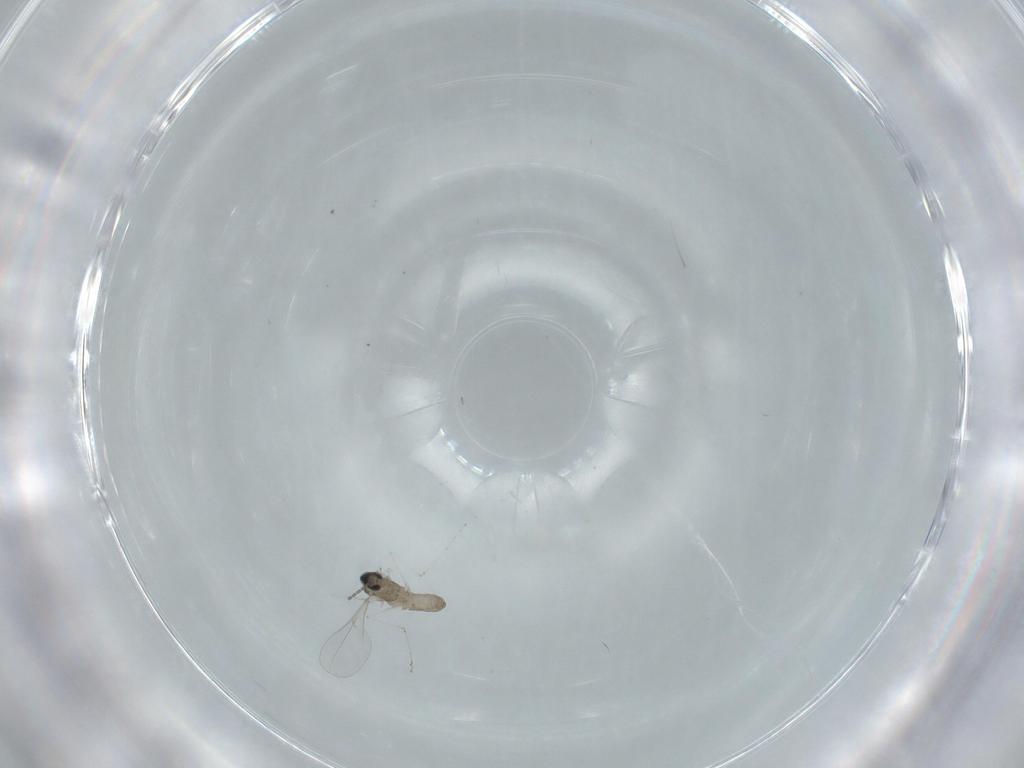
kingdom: Animalia
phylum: Arthropoda
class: Insecta
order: Diptera
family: Cecidomyiidae
